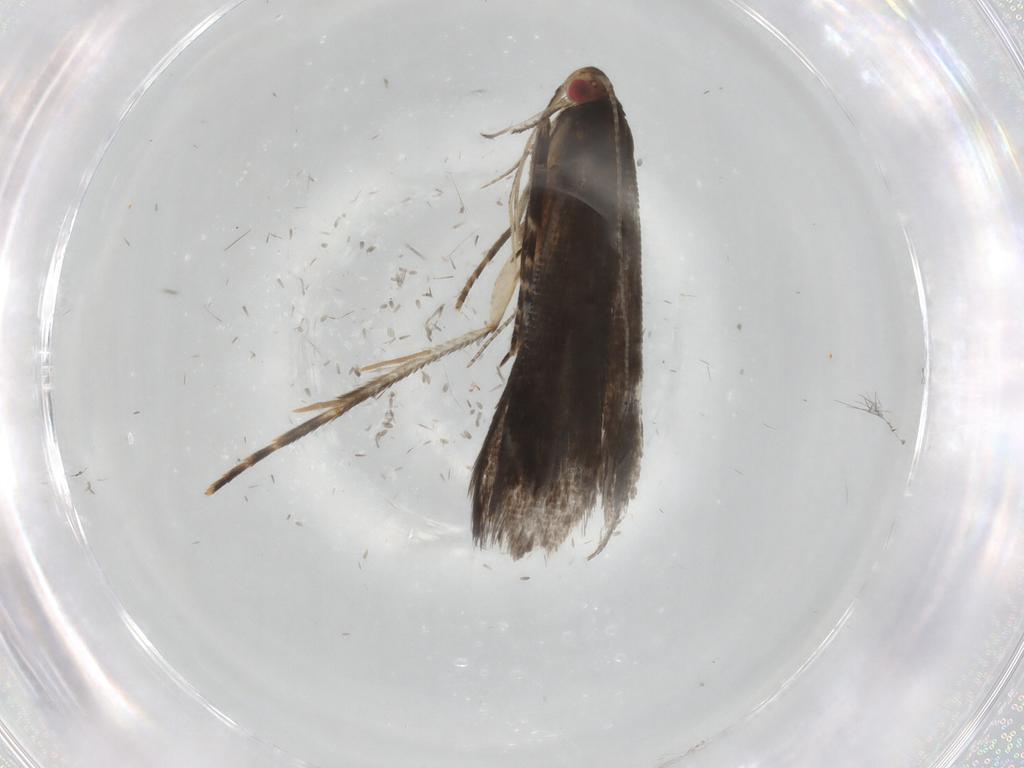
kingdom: Animalia
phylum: Arthropoda
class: Insecta
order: Lepidoptera
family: Gelechiidae
